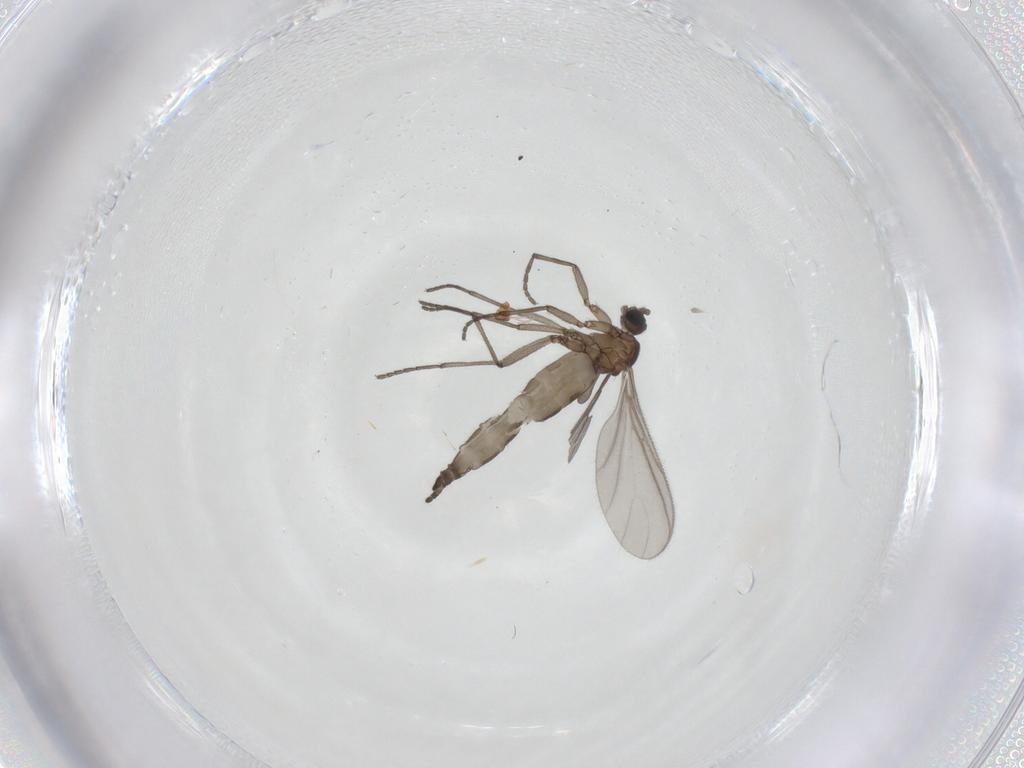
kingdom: Animalia
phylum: Arthropoda
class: Insecta
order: Diptera
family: Sciaridae
